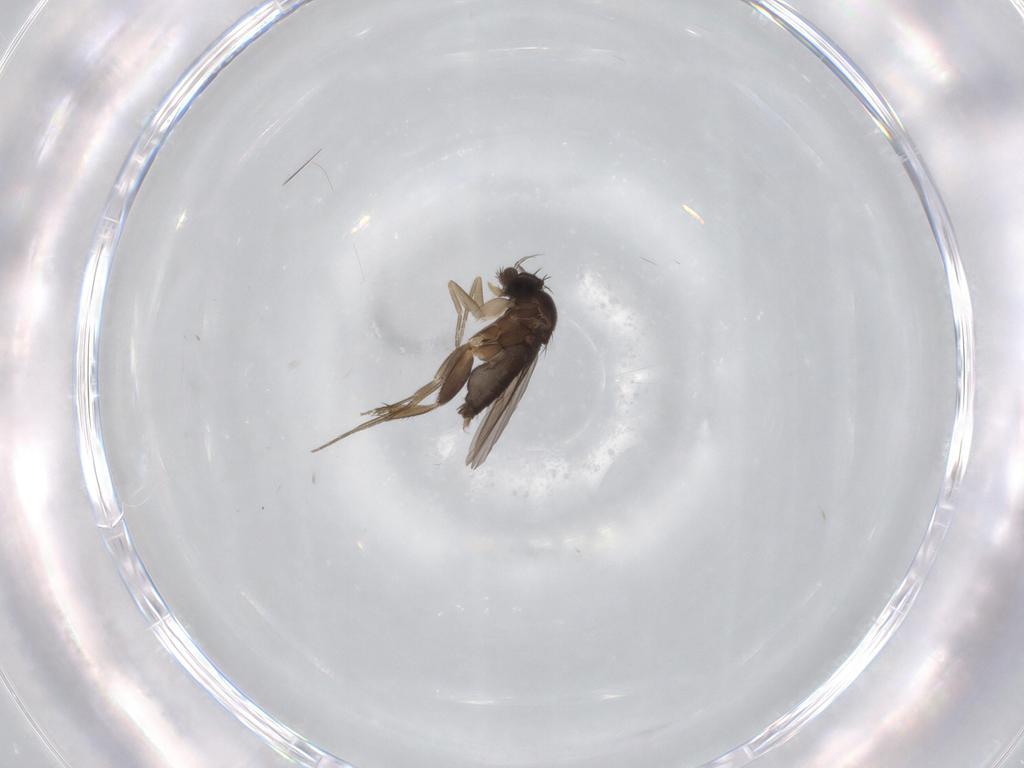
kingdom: Animalia
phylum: Arthropoda
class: Insecta
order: Diptera
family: Phoridae
